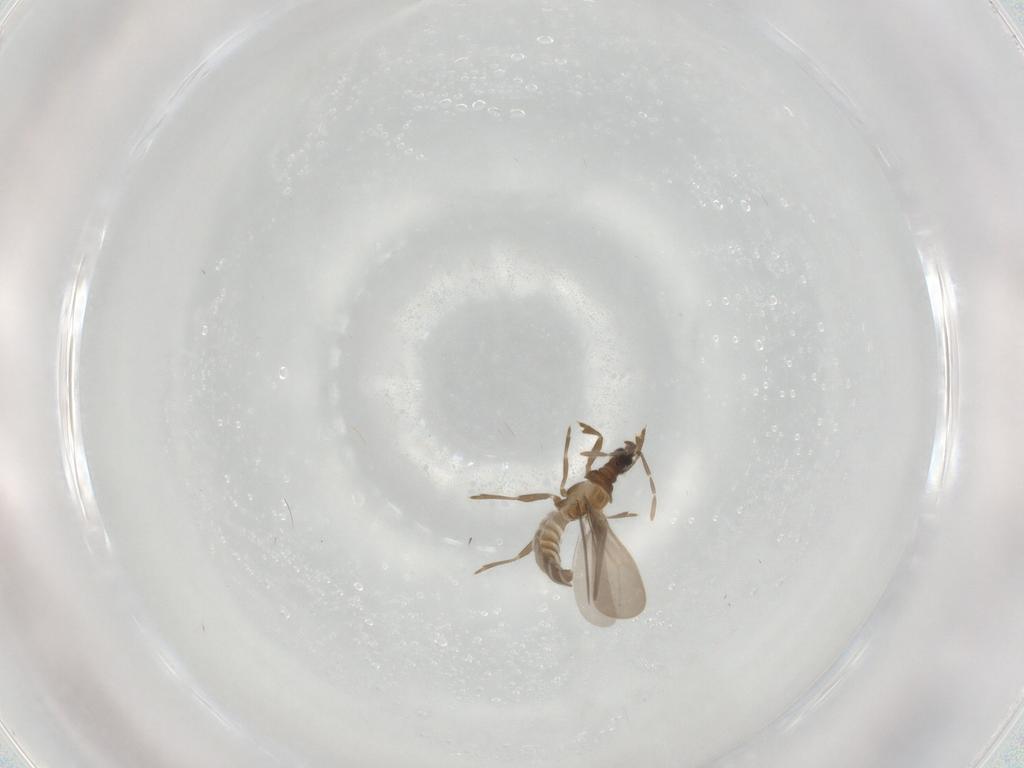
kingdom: Animalia
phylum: Arthropoda
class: Insecta
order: Hemiptera
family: Enicocephalidae
